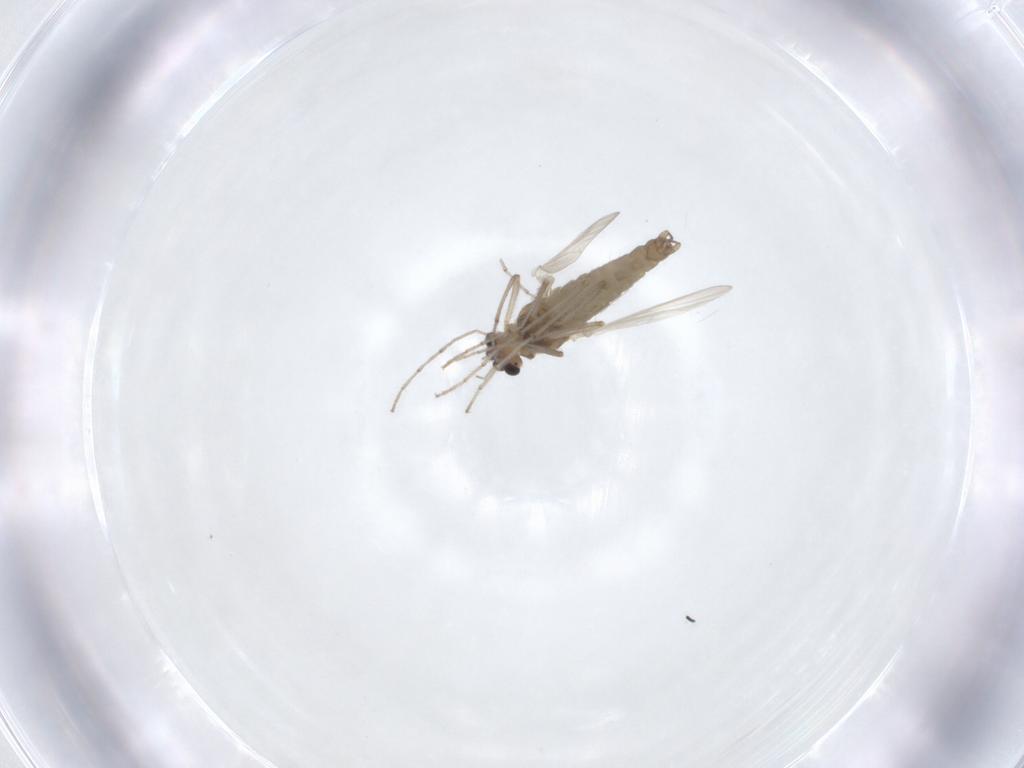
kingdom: Animalia
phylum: Arthropoda
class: Insecta
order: Diptera
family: Chironomidae
